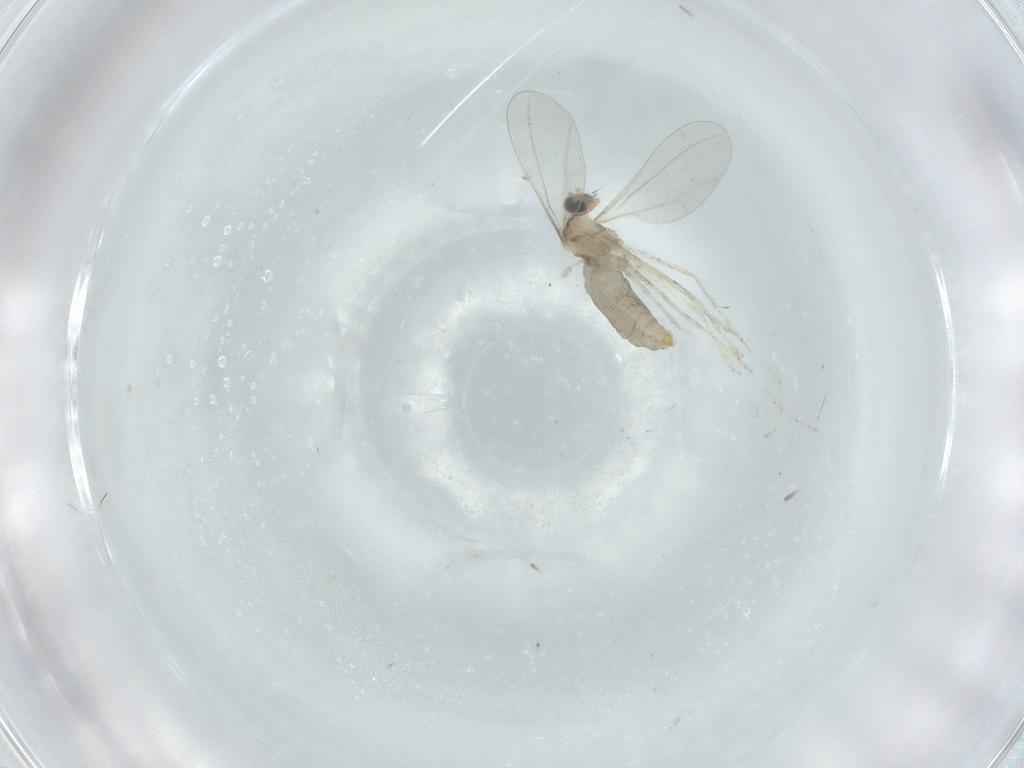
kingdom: Animalia
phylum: Arthropoda
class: Insecta
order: Diptera
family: Cecidomyiidae
